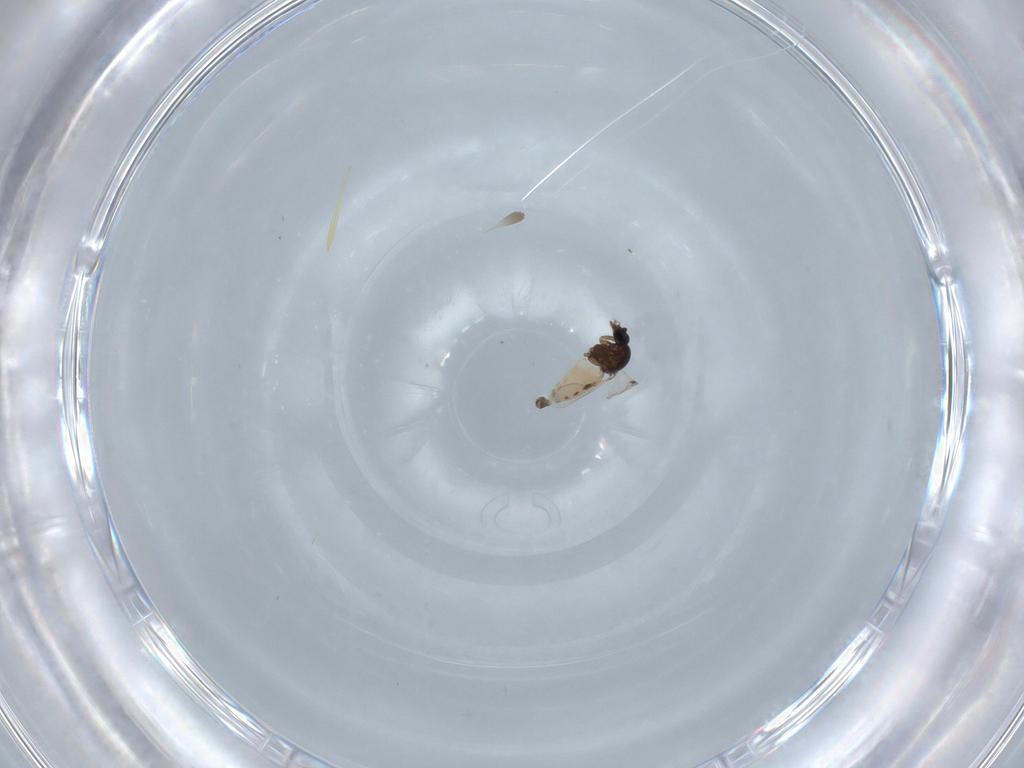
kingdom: Animalia
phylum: Arthropoda
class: Insecta
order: Diptera
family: Ceratopogonidae
